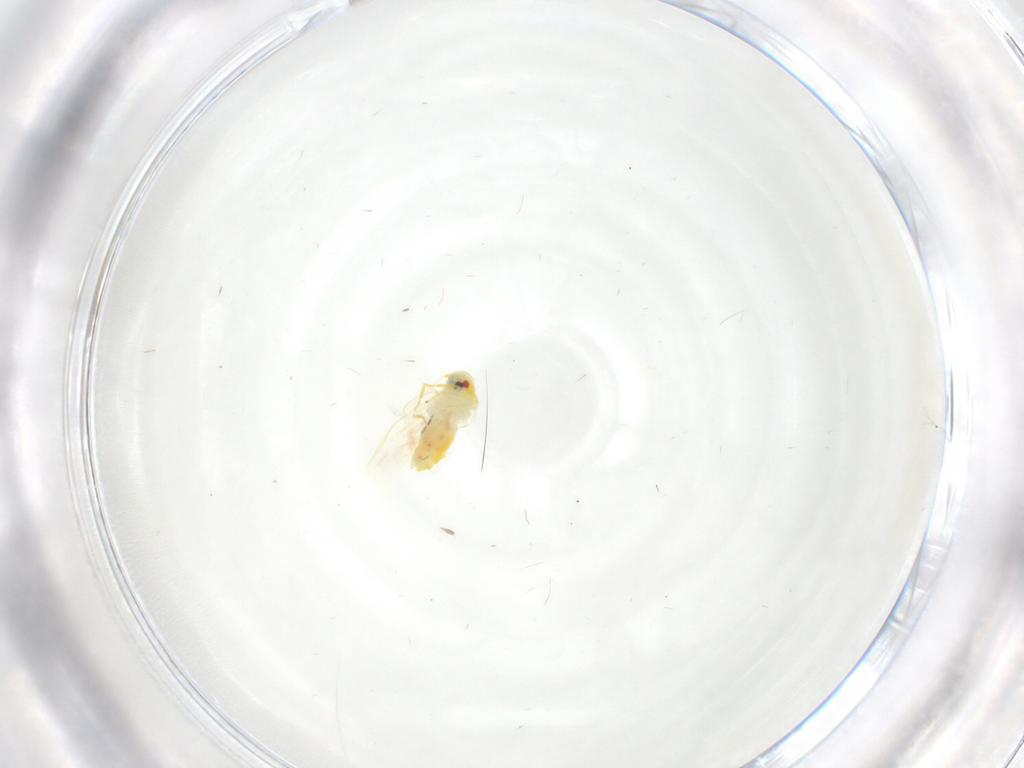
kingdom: Animalia
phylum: Arthropoda
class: Insecta
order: Hemiptera
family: Aleyrodidae
